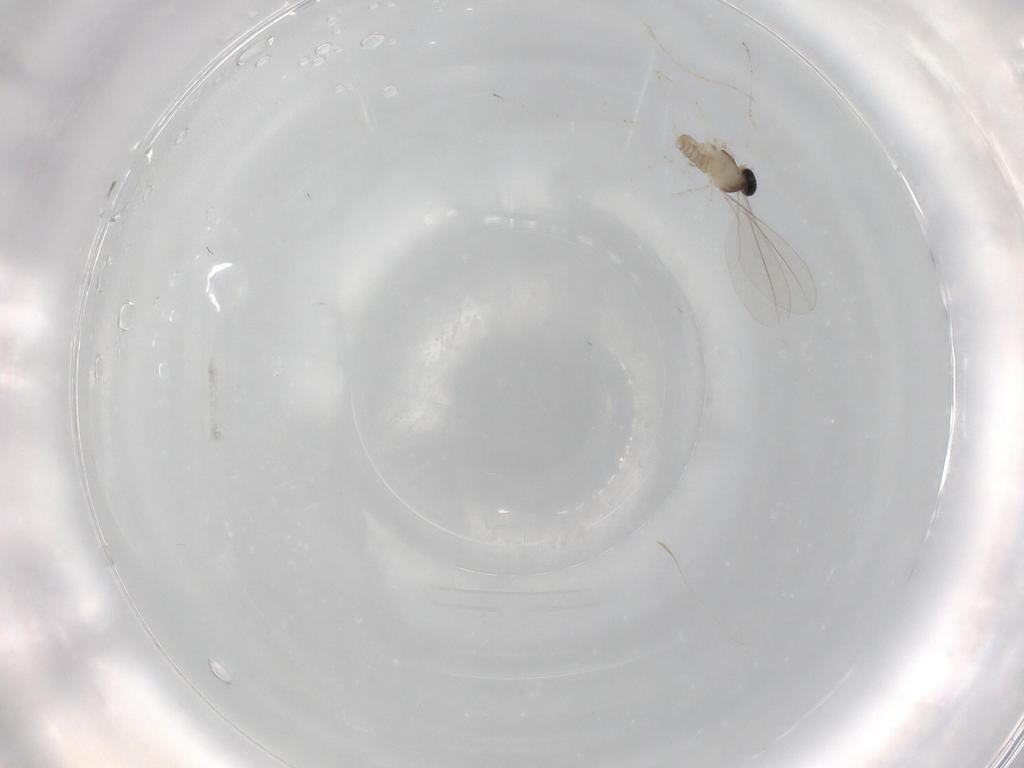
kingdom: Animalia
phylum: Arthropoda
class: Insecta
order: Diptera
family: Cecidomyiidae
